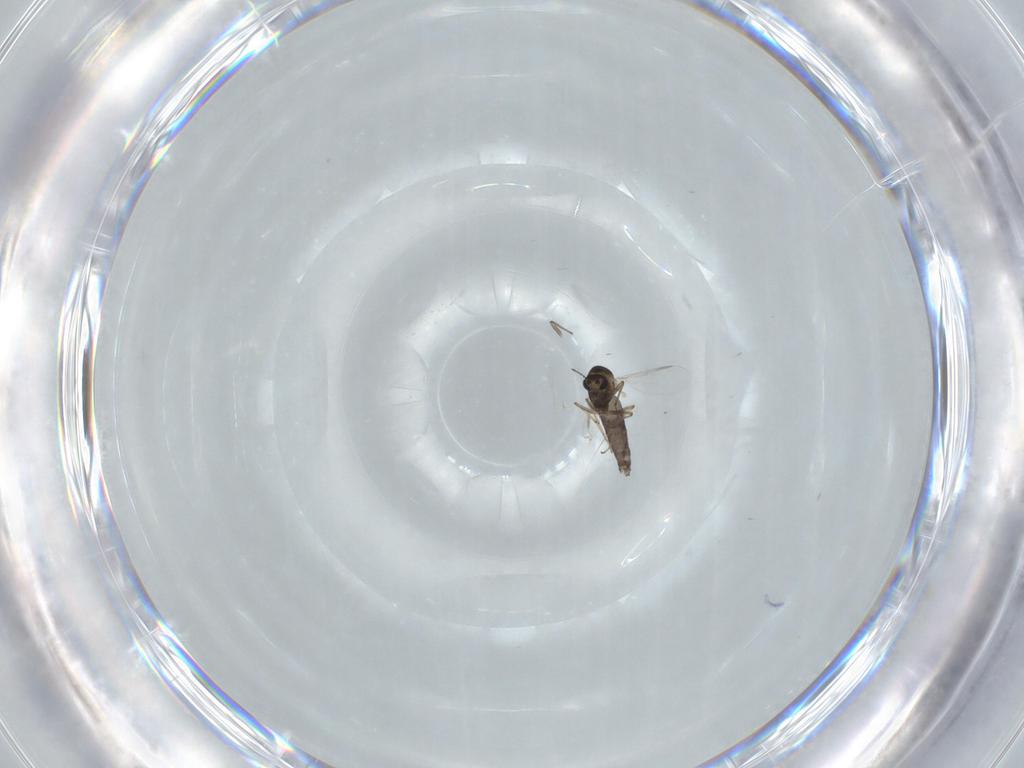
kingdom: Animalia
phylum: Arthropoda
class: Insecta
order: Diptera
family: Chironomidae
